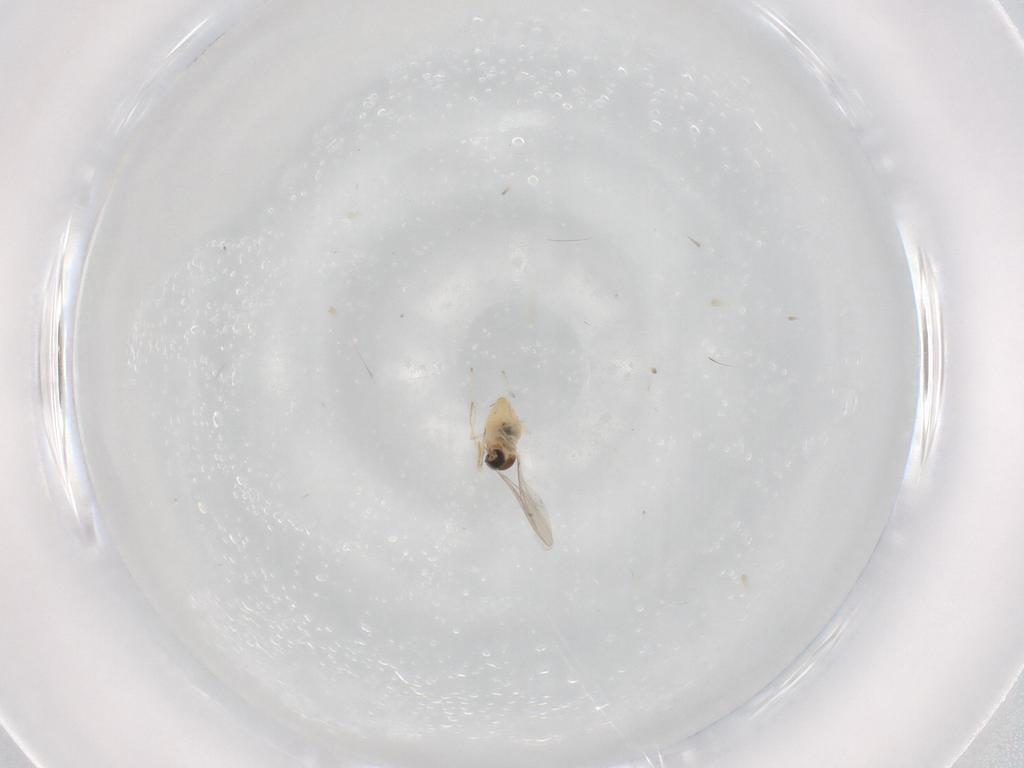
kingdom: Animalia
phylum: Arthropoda
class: Insecta
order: Diptera
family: Cecidomyiidae
